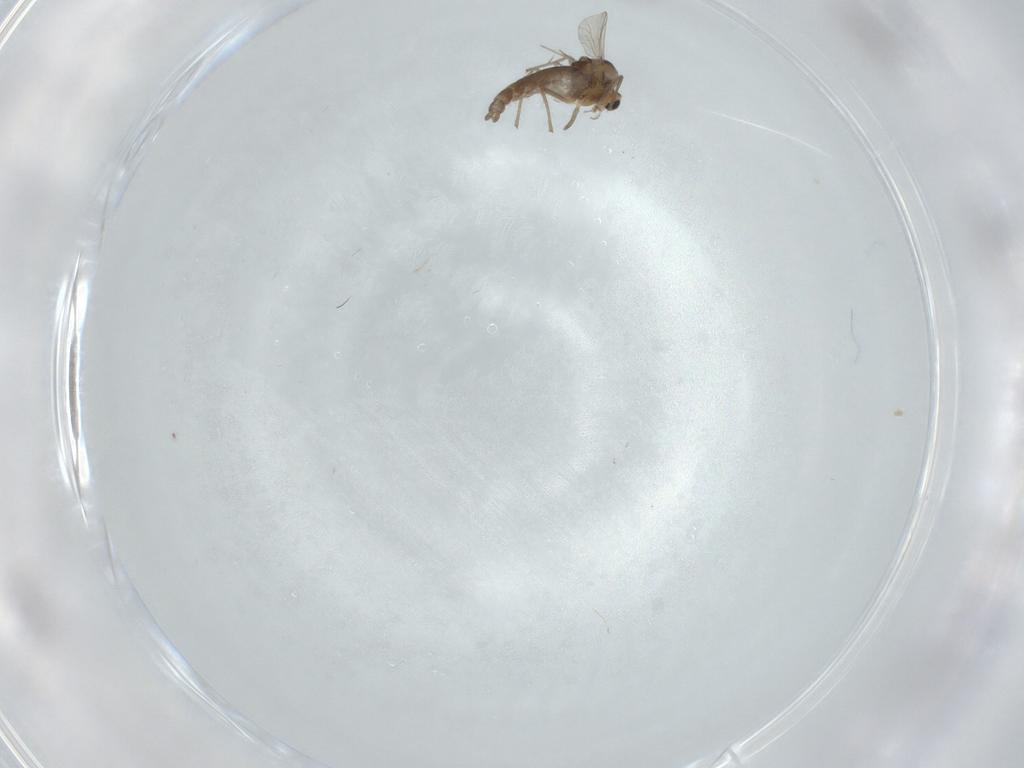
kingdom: Animalia
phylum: Arthropoda
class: Insecta
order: Diptera
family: Chironomidae
